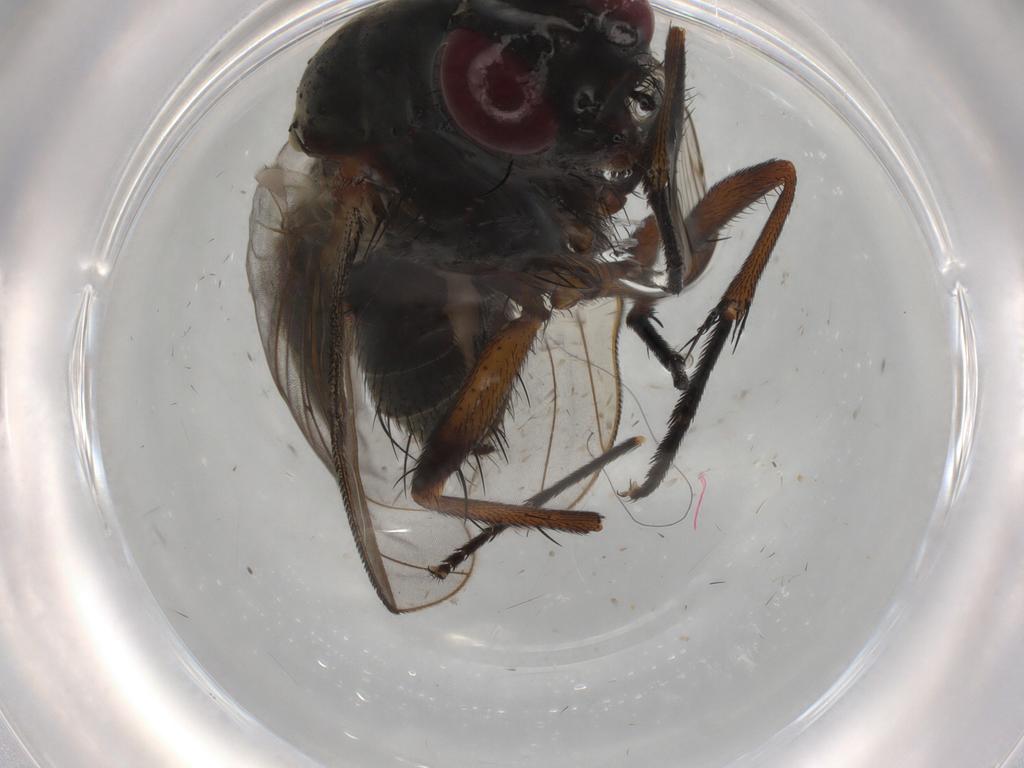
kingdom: Animalia
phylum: Arthropoda
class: Insecta
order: Diptera
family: Muscidae
